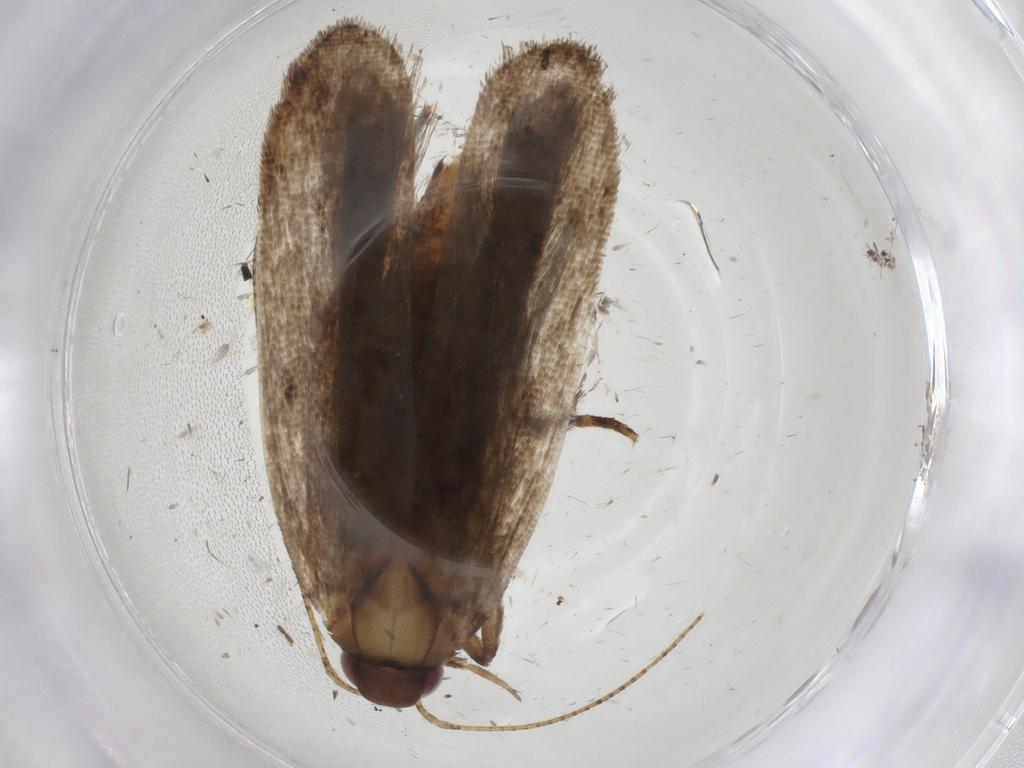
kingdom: Animalia
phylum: Arthropoda
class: Insecta
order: Lepidoptera
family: Gelechiidae
